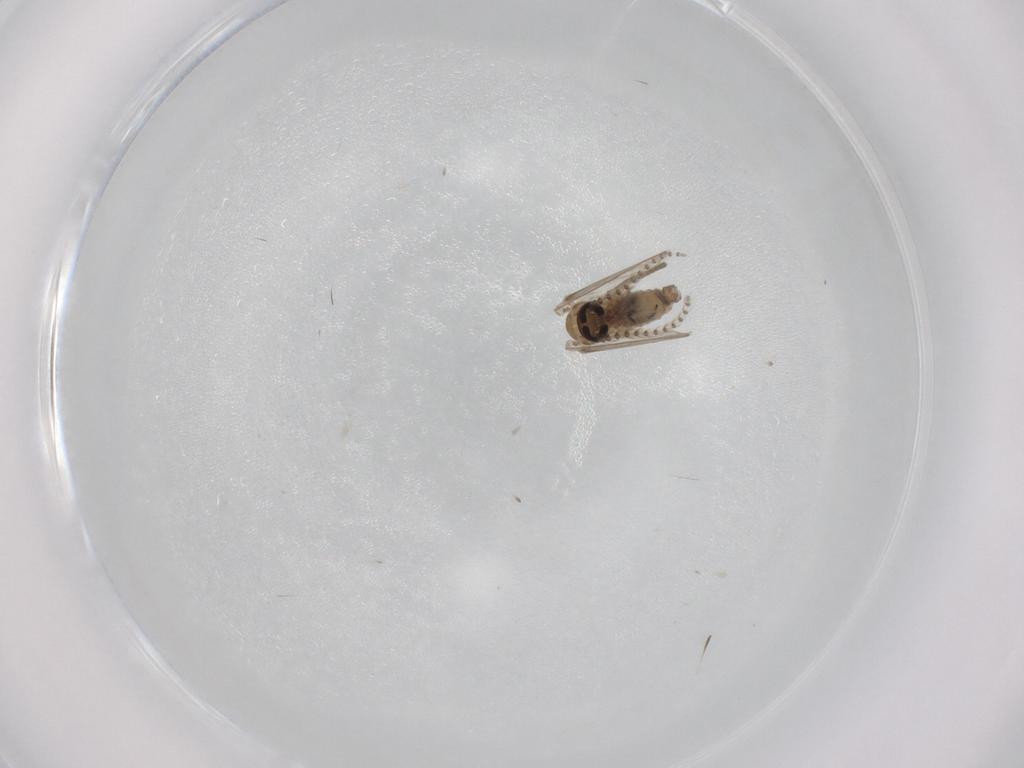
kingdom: Animalia
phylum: Arthropoda
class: Insecta
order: Diptera
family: Psychodidae
